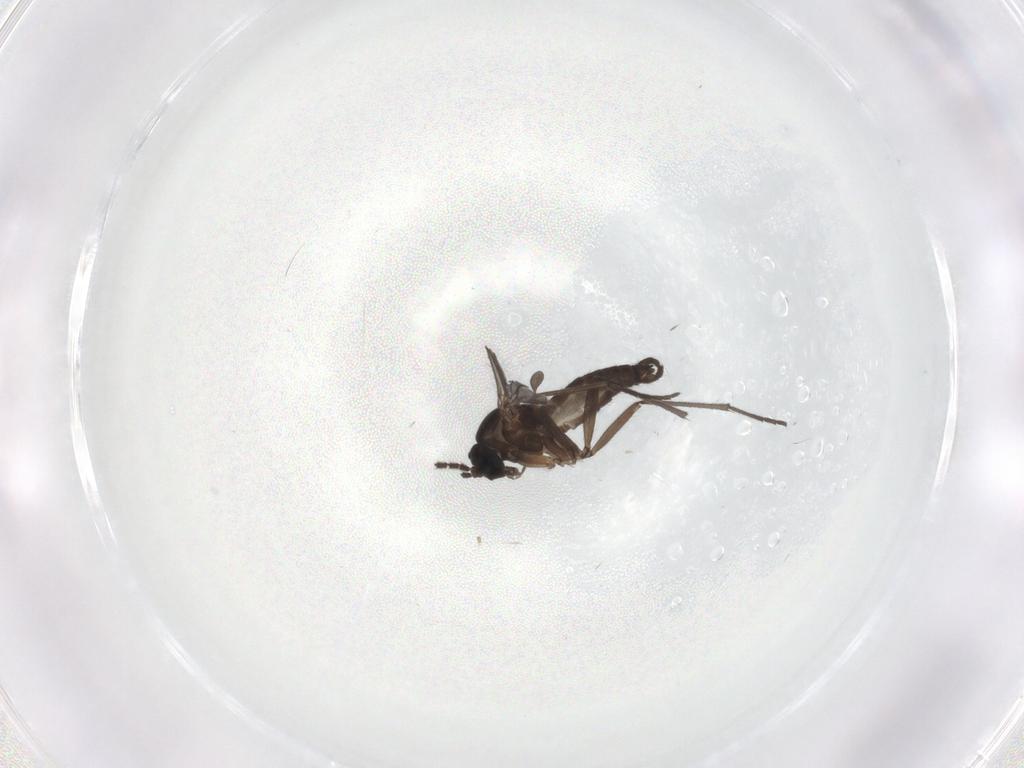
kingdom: Animalia
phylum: Arthropoda
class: Insecta
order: Diptera
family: Sciaridae
